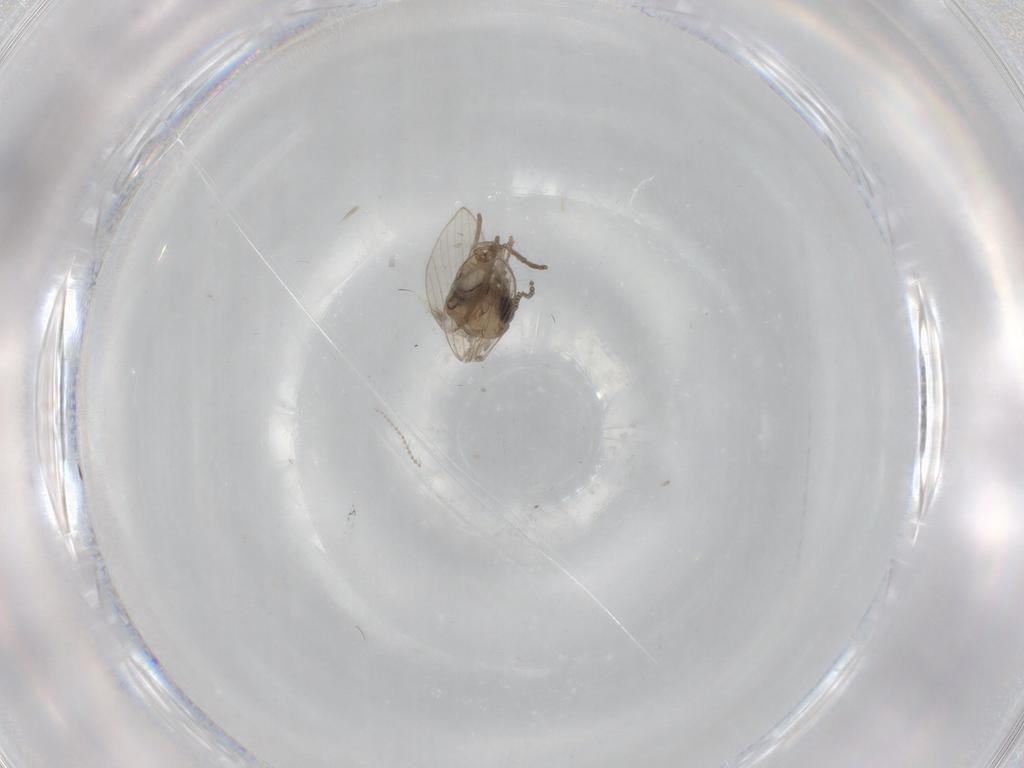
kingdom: Animalia
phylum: Arthropoda
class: Insecta
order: Diptera
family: Psychodidae
